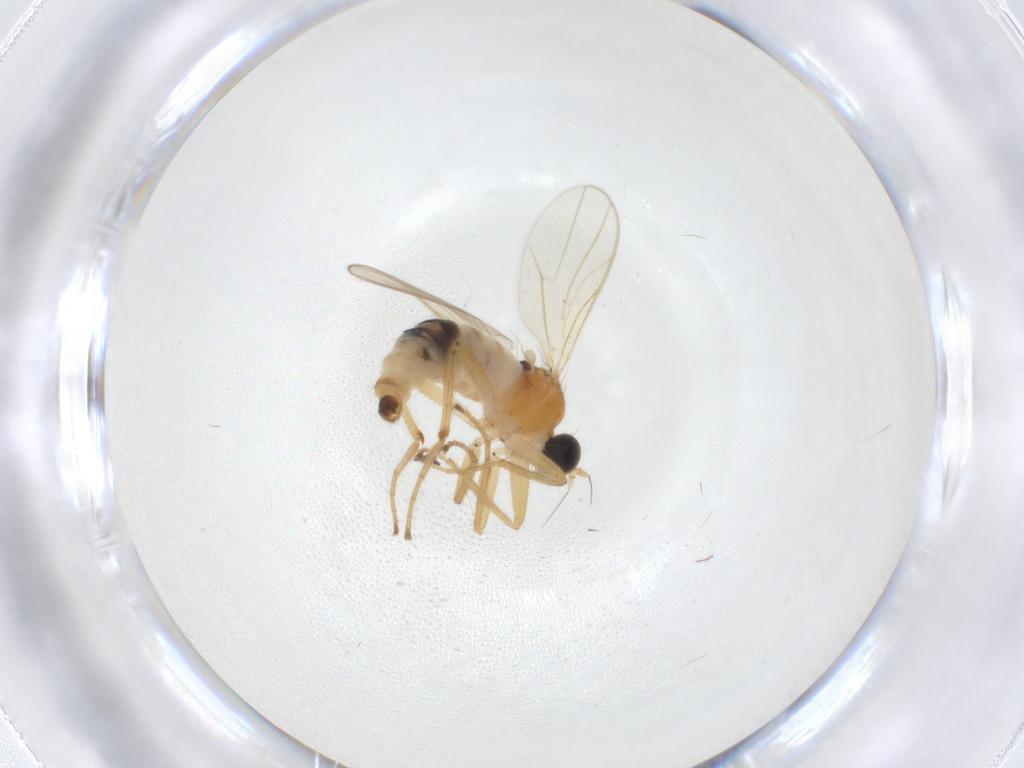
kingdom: Animalia
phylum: Arthropoda
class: Insecta
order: Diptera
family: Hybotidae
